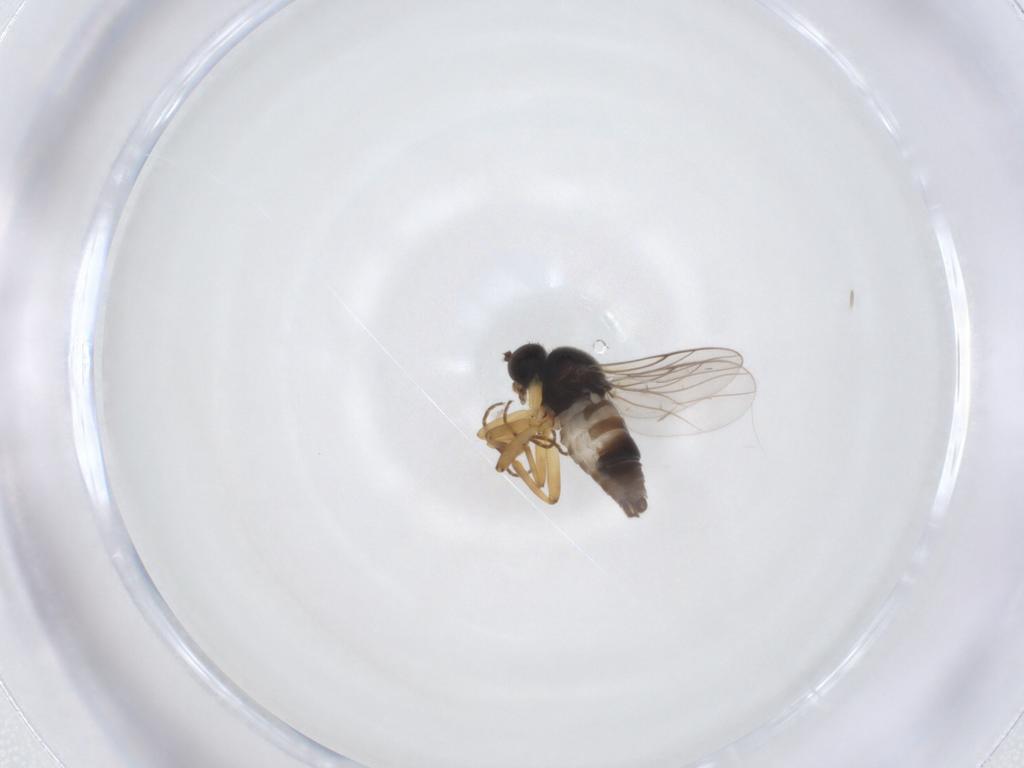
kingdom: Animalia
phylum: Arthropoda
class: Insecta
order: Diptera
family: Hybotidae
